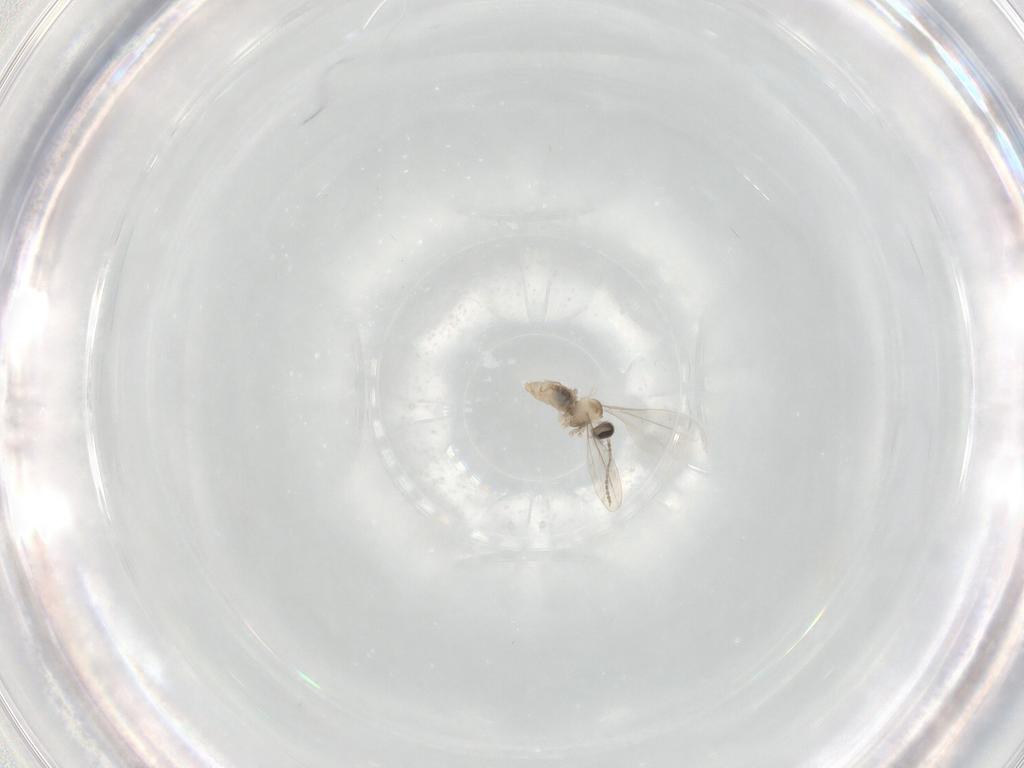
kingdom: Animalia
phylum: Arthropoda
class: Insecta
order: Diptera
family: Cecidomyiidae
